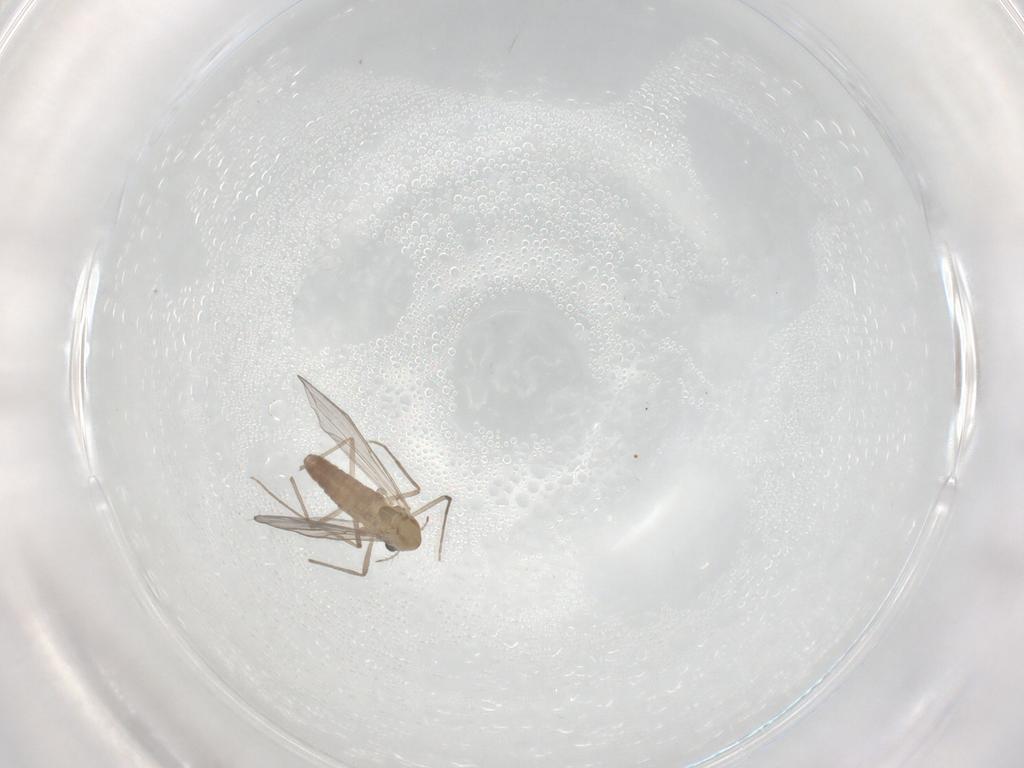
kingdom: Animalia
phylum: Arthropoda
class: Insecta
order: Diptera
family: Chironomidae
